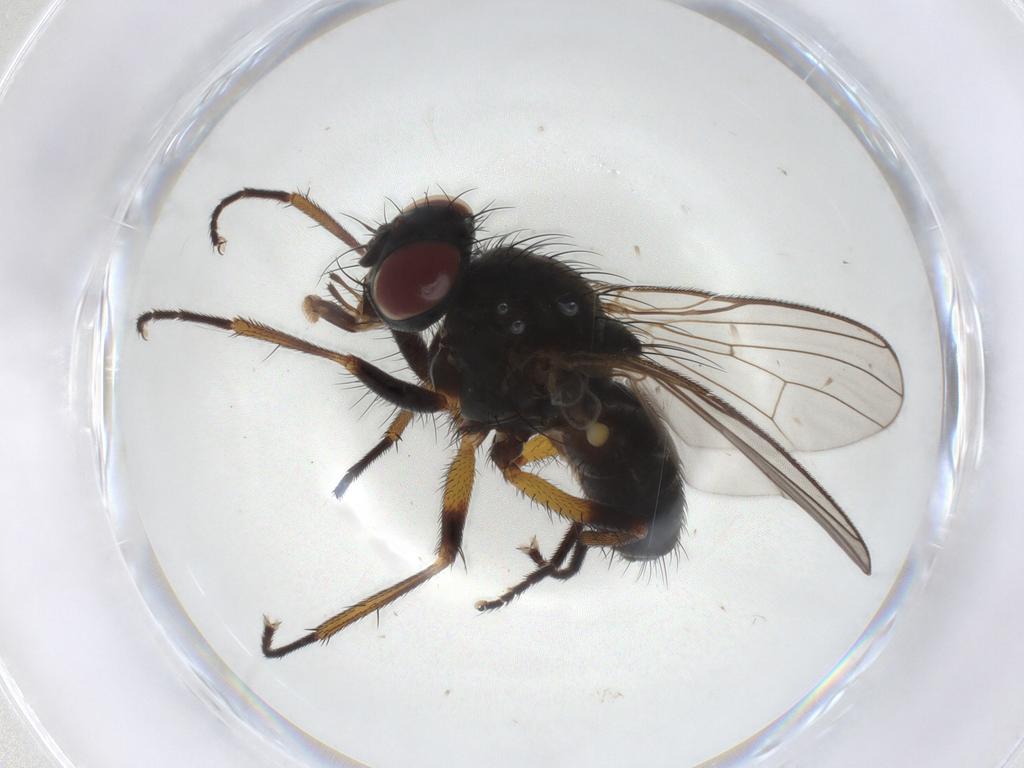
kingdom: Animalia
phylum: Arthropoda
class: Insecta
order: Diptera
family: Muscidae
